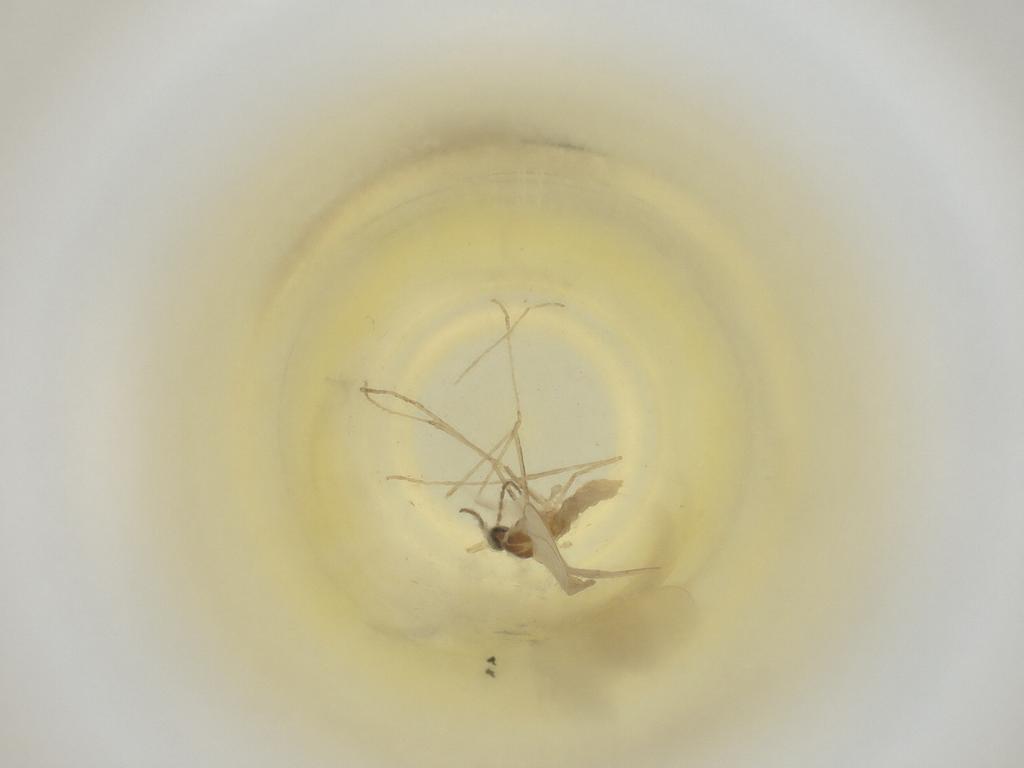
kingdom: Animalia
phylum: Arthropoda
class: Insecta
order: Diptera
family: Cecidomyiidae
